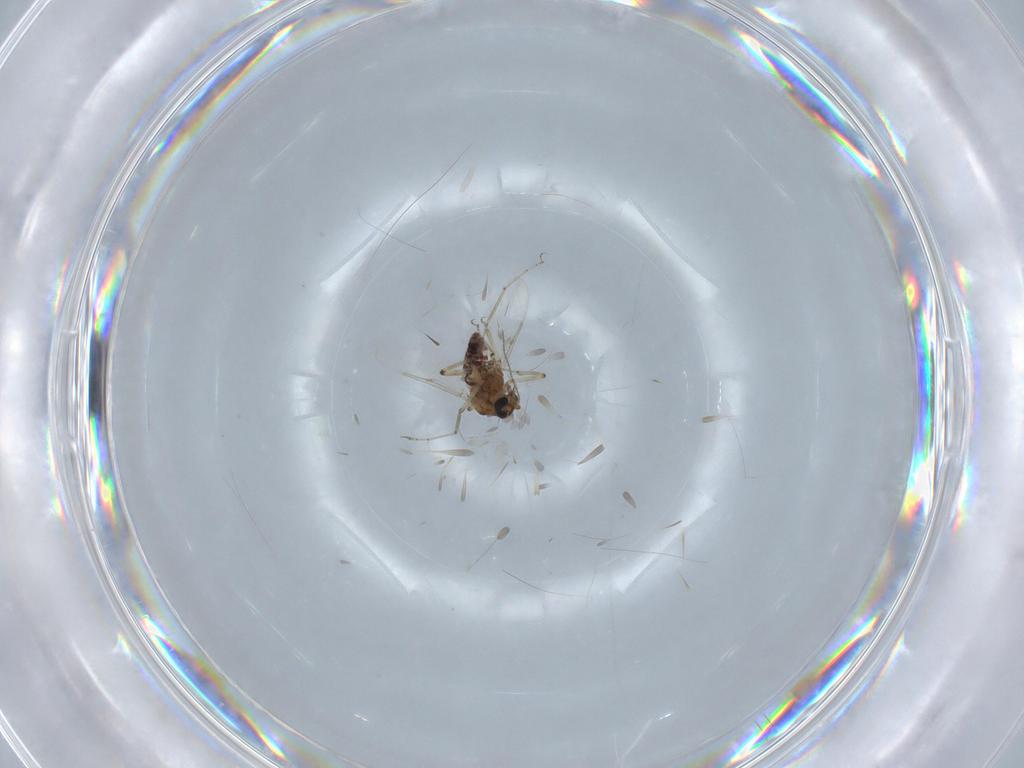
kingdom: Animalia
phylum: Arthropoda
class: Insecta
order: Diptera
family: Ceratopogonidae
